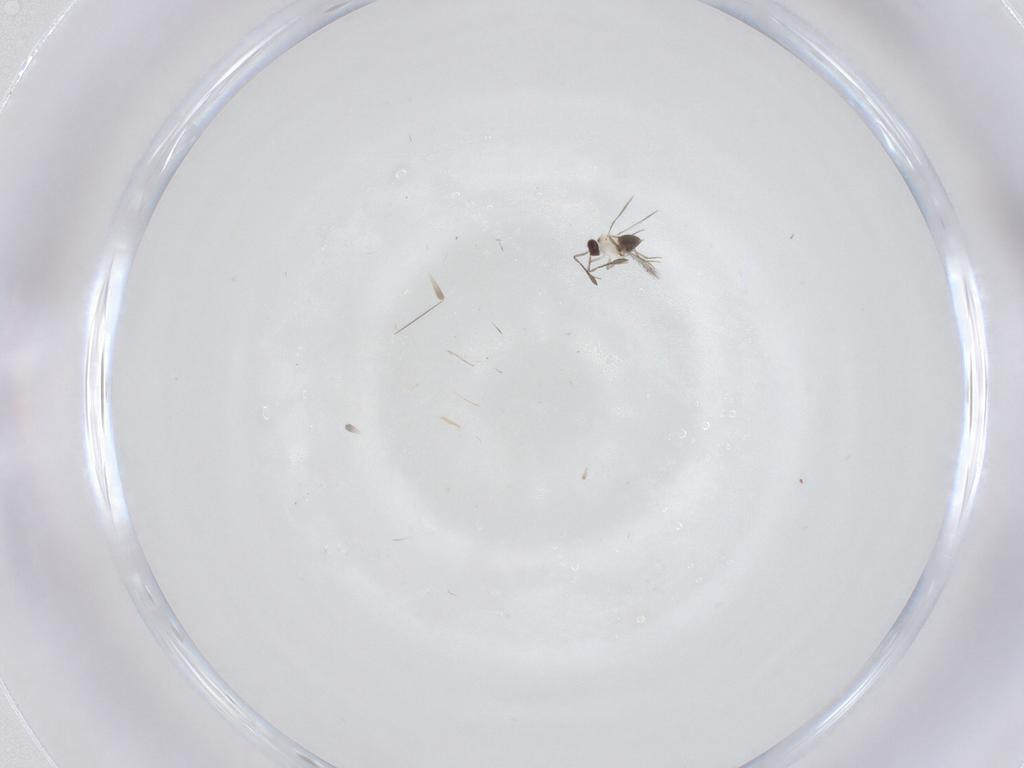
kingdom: Animalia
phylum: Arthropoda
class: Insecta
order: Hymenoptera
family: Mymaridae
